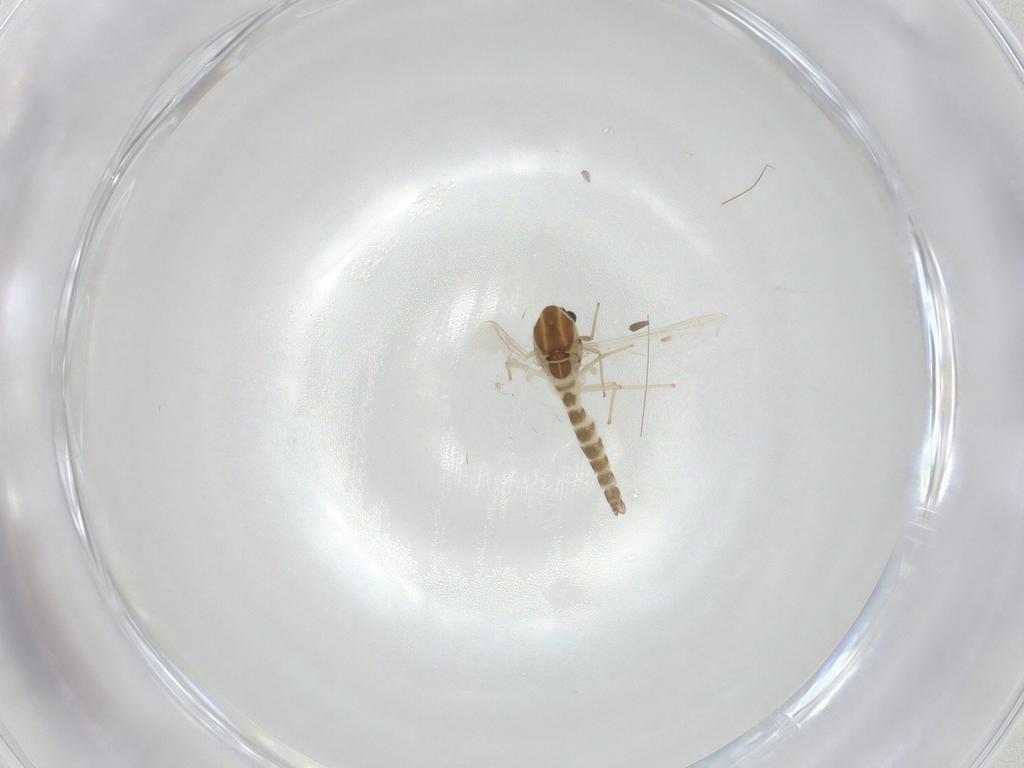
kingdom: Animalia
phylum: Arthropoda
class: Insecta
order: Diptera
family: Chironomidae
